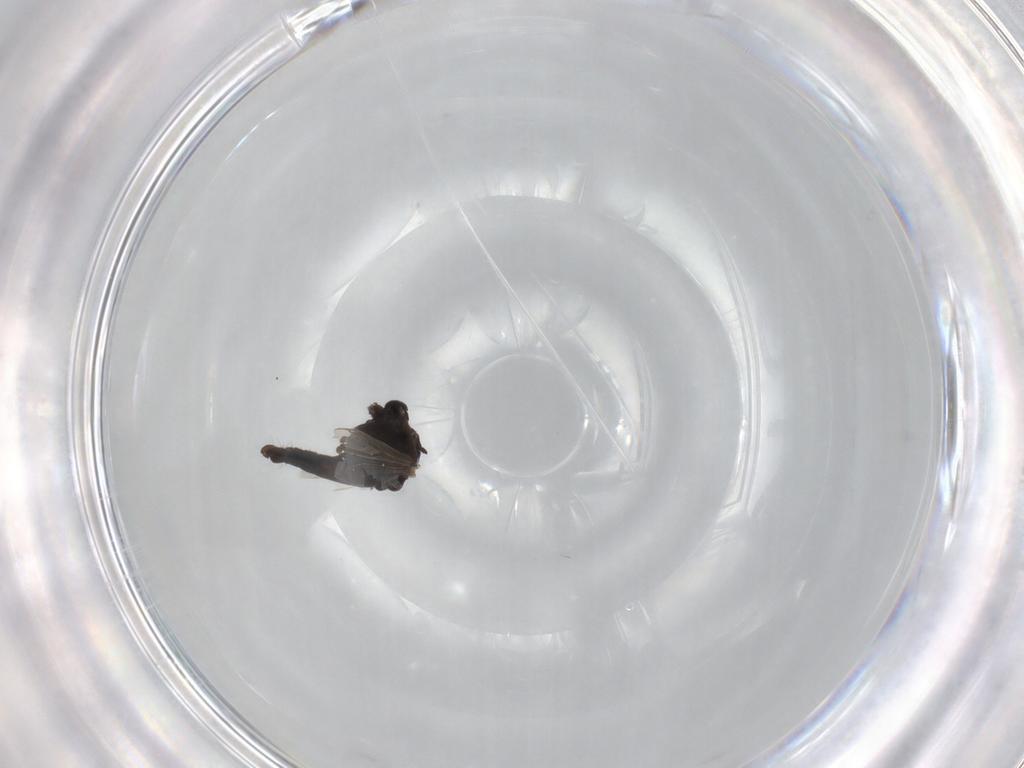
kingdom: Animalia
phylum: Arthropoda
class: Insecta
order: Diptera
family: Chironomidae
